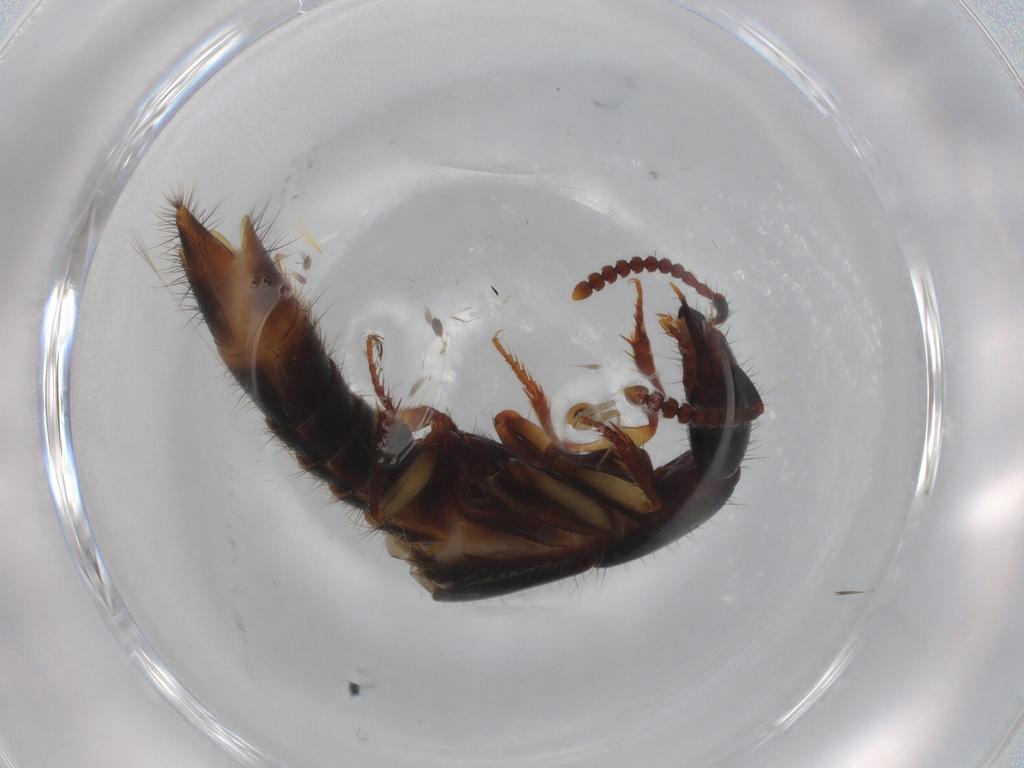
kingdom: Animalia
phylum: Arthropoda
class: Insecta
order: Coleoptera
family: Staphylinidae
